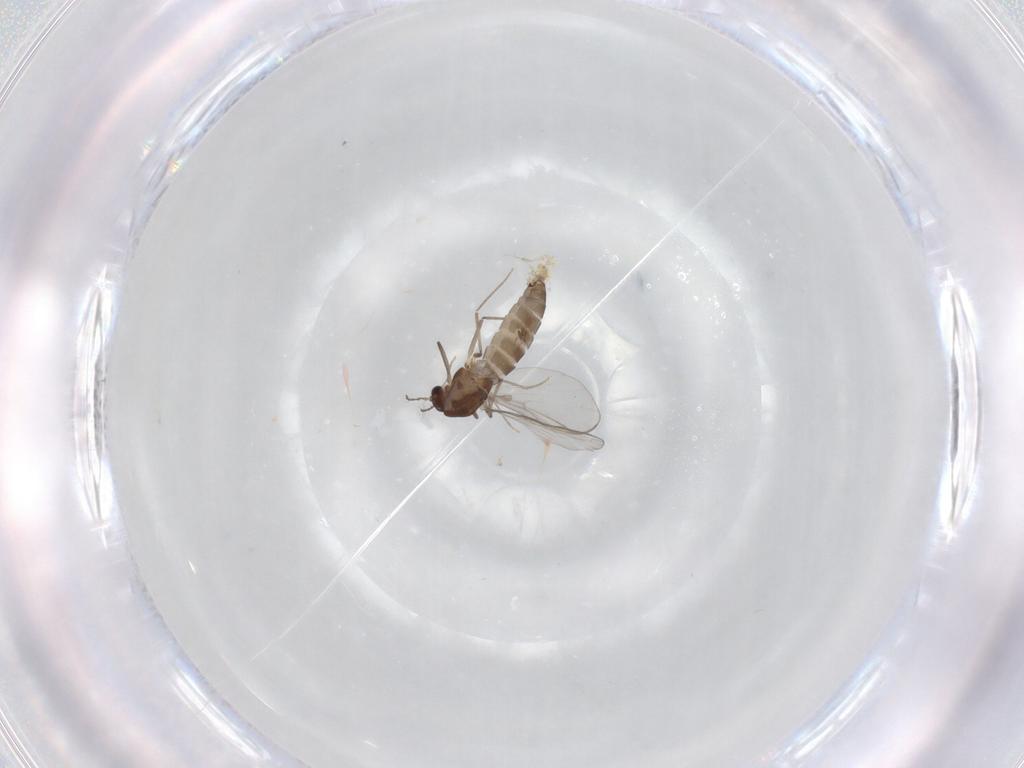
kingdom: Animalia
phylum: Arthropoda
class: Insecta
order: Diptera
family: Chironomidae
